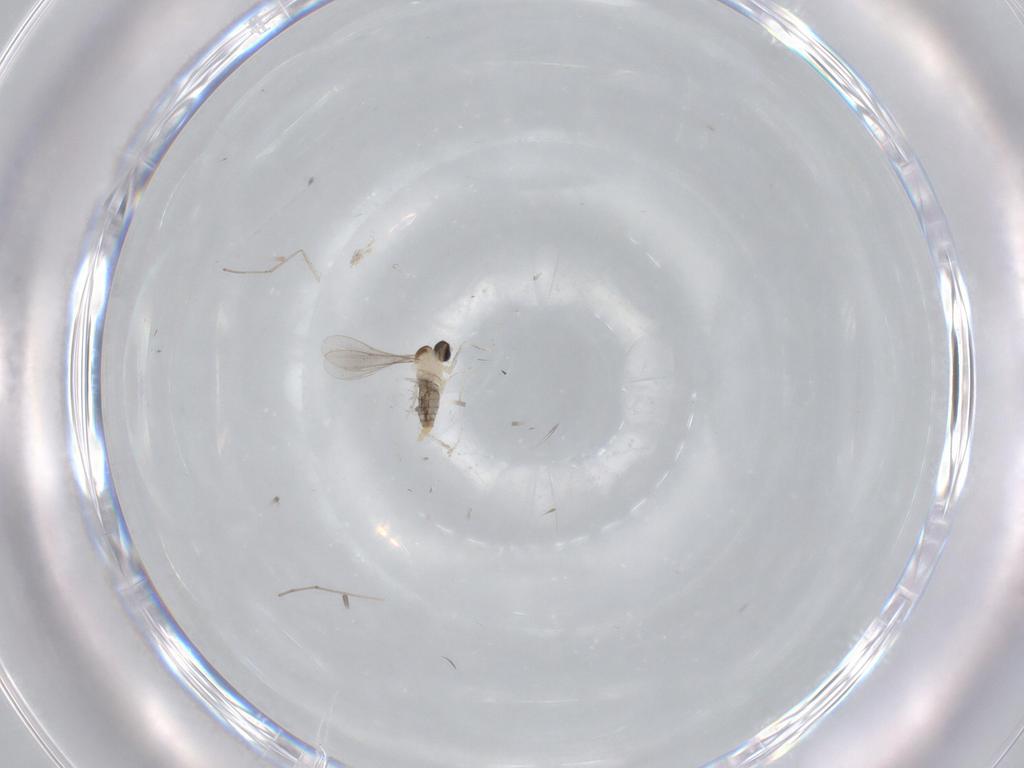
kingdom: Animalia
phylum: Arthropoda
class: Insecta
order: Diptera
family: Cecidomyiidae
